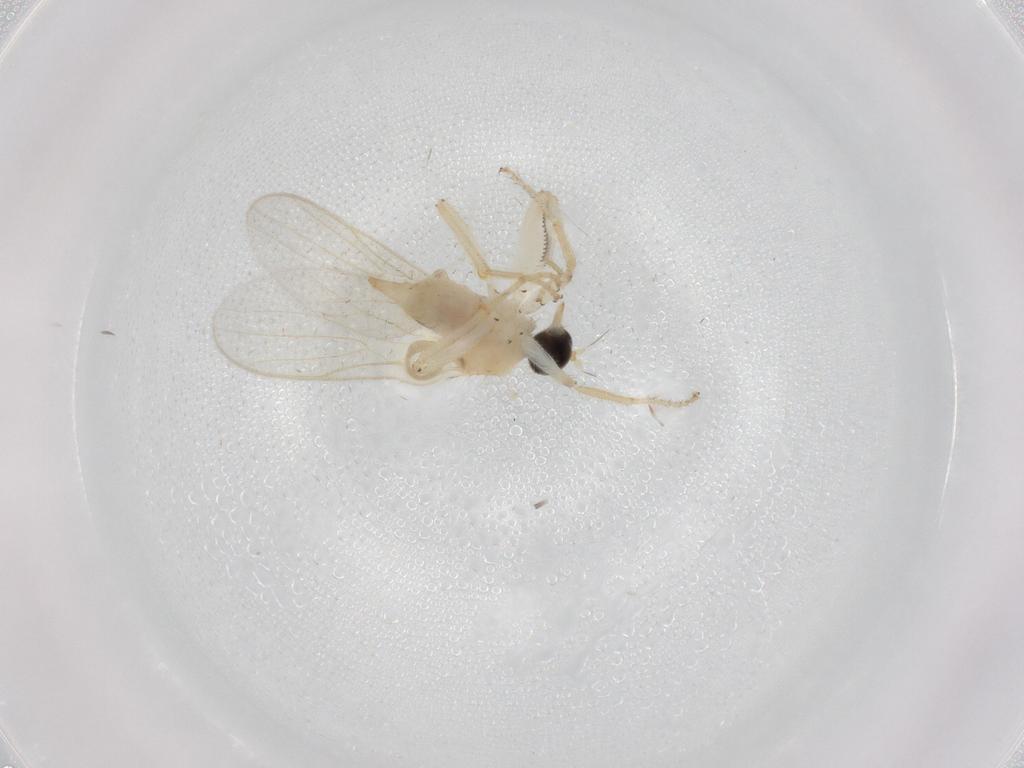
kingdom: Animalia
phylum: Arthropoda
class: Insecta
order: Diptera
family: Cecidomyiidae
